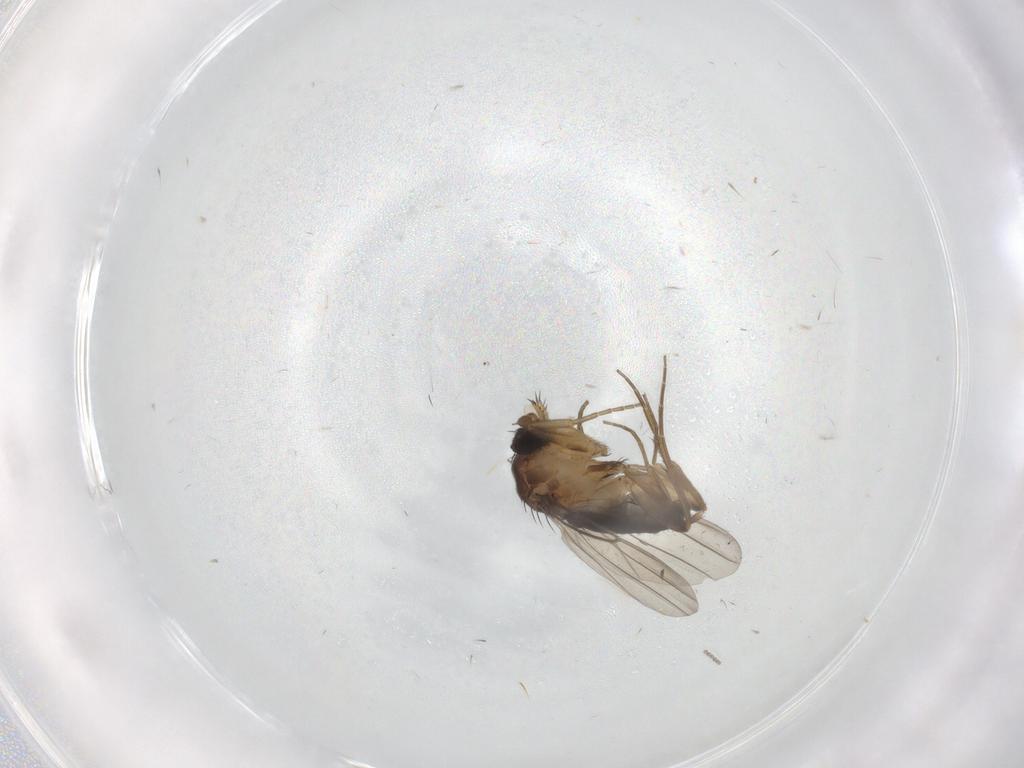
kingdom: Animalia
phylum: Arthropoda
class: Insecta
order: Diptera
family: Phoridae
